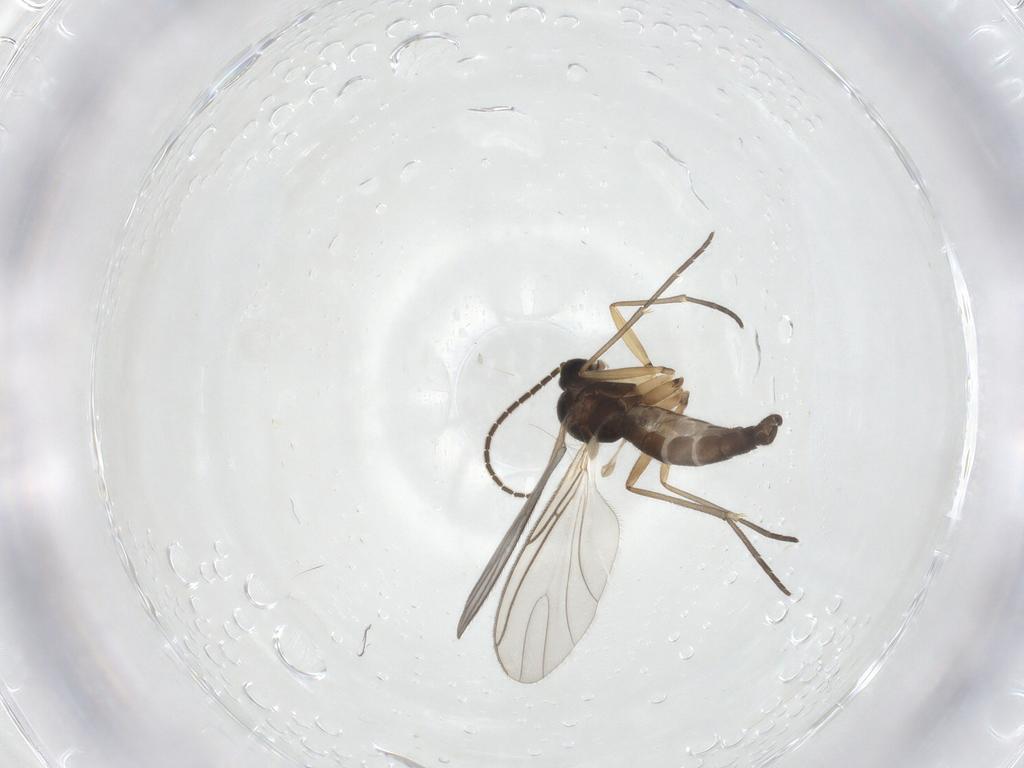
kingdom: Animalia
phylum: Arthropoda
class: Insecta
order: Diptera
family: Sciaridae
